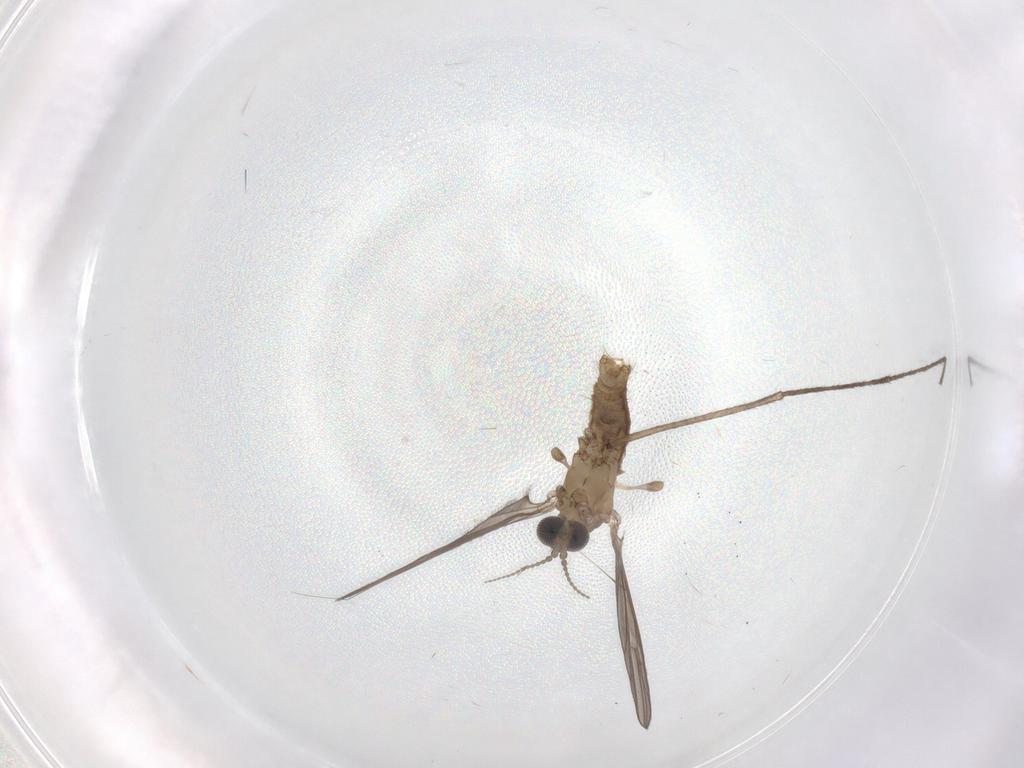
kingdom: Animalia
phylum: Arthropoda
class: Insecta
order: Diptera
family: Limoniidae
